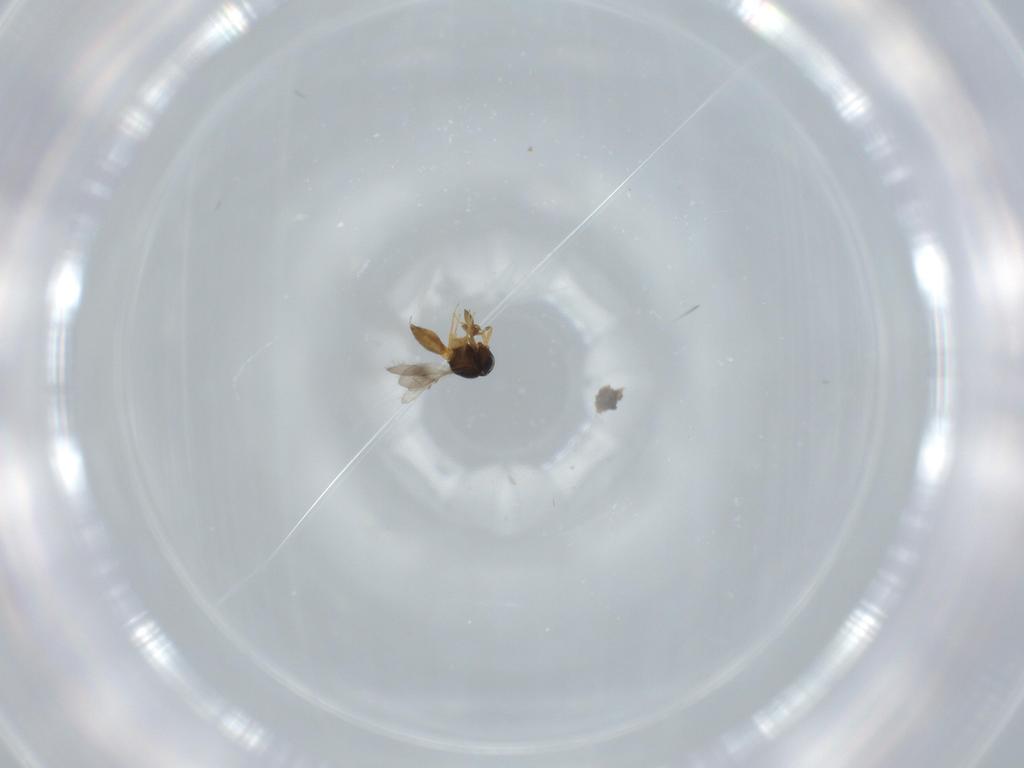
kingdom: Animalia
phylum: Arthropoda
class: Insecta
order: Hymenoptera
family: Scelionidae
